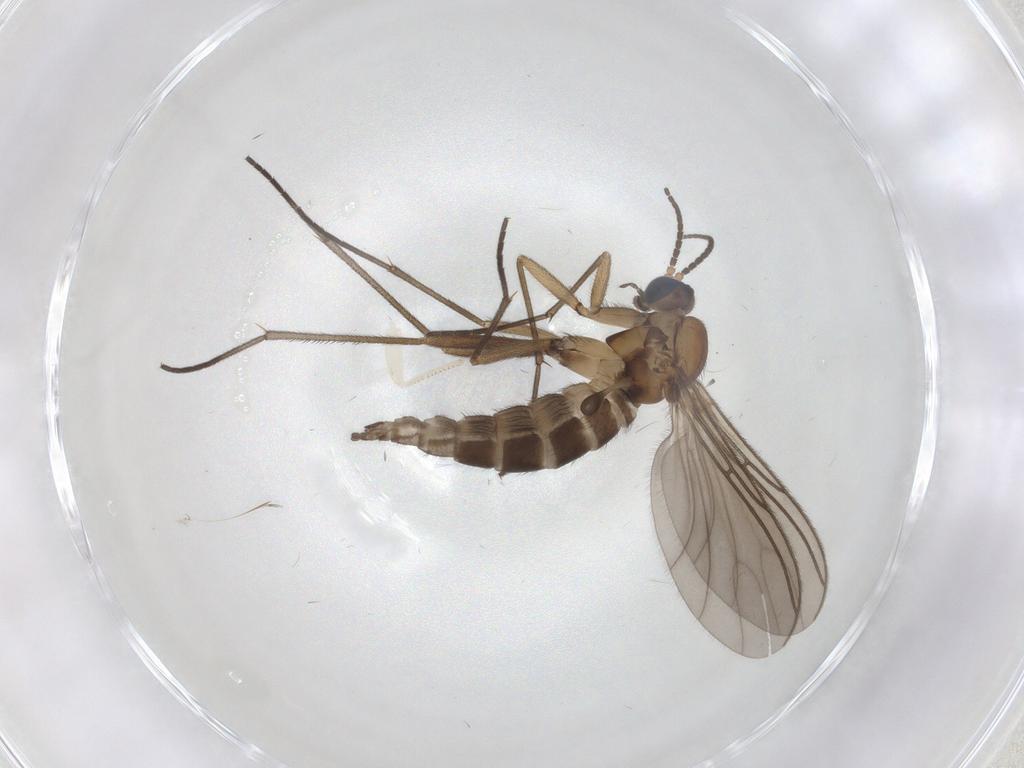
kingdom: Animalia
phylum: Arthropoda
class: Insecta
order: Diptera
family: Sciaridae
